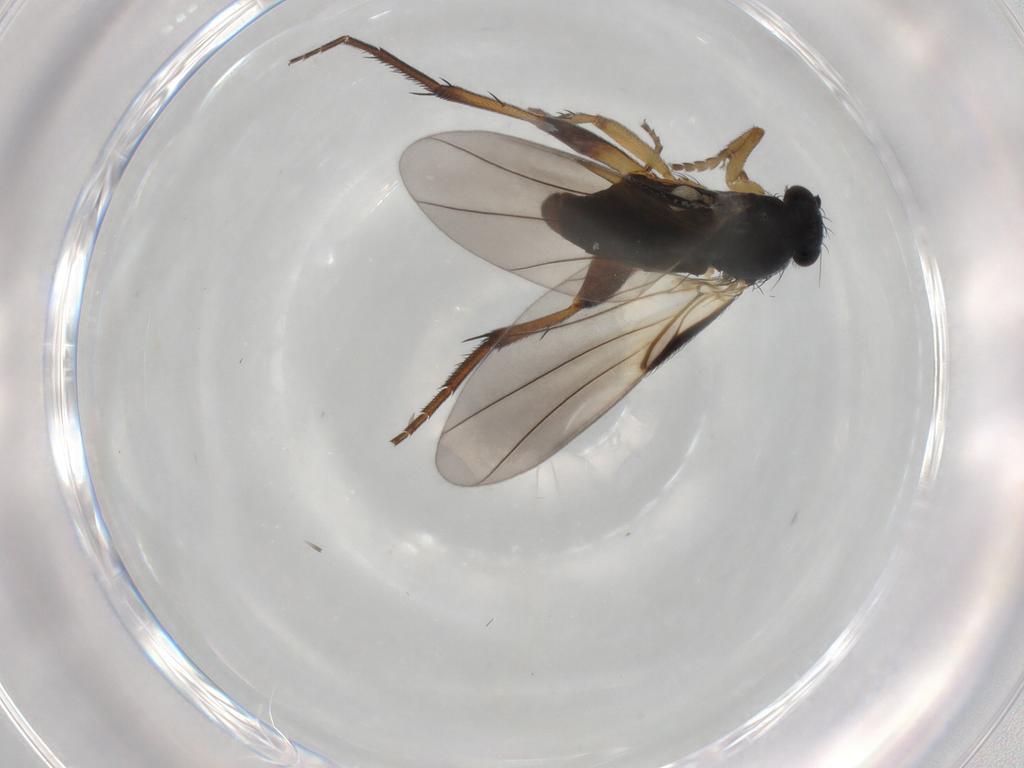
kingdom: Animalia
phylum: Arthropoda
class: Insecta
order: Diptera
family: Phoridae
